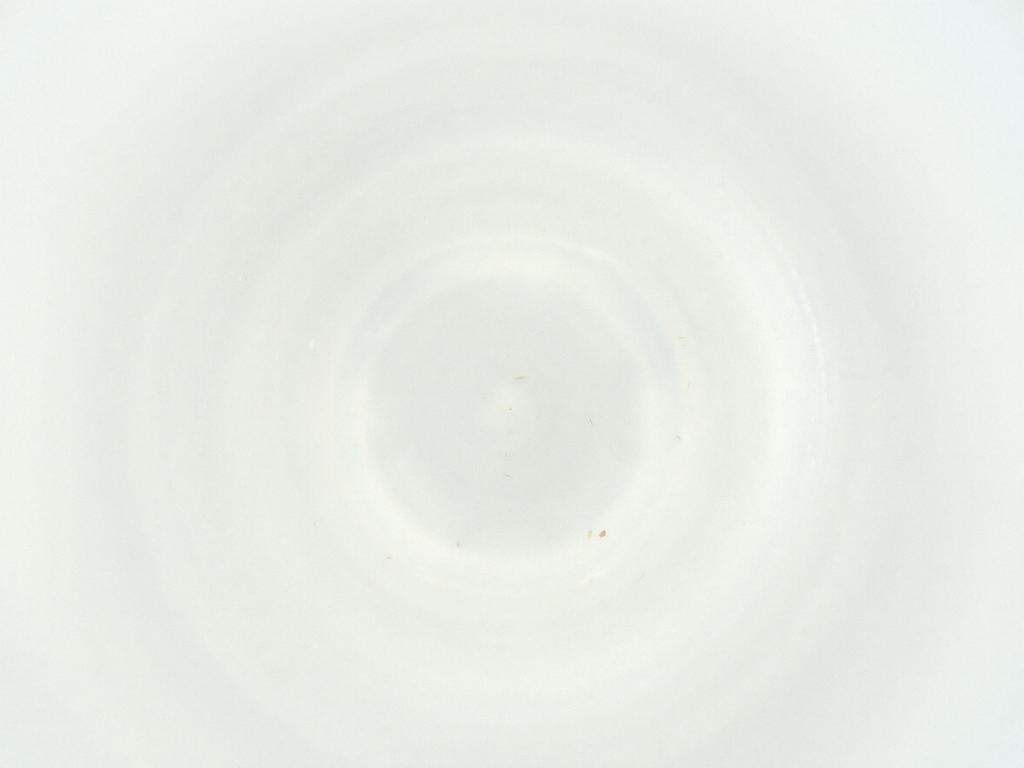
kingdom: Animalia
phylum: Arthropoda
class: Insecta
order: Diptera
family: Cecidomyiidae
